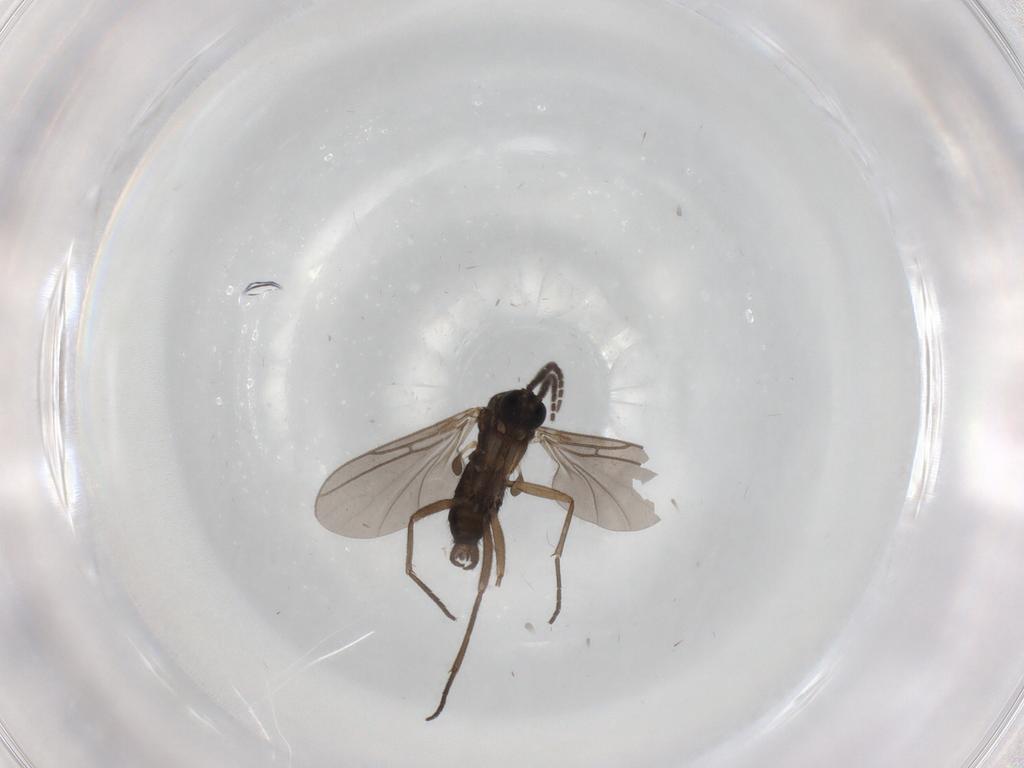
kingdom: Animalia
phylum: Arthropoda
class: Insecta
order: Diptera
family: Sciaridae
